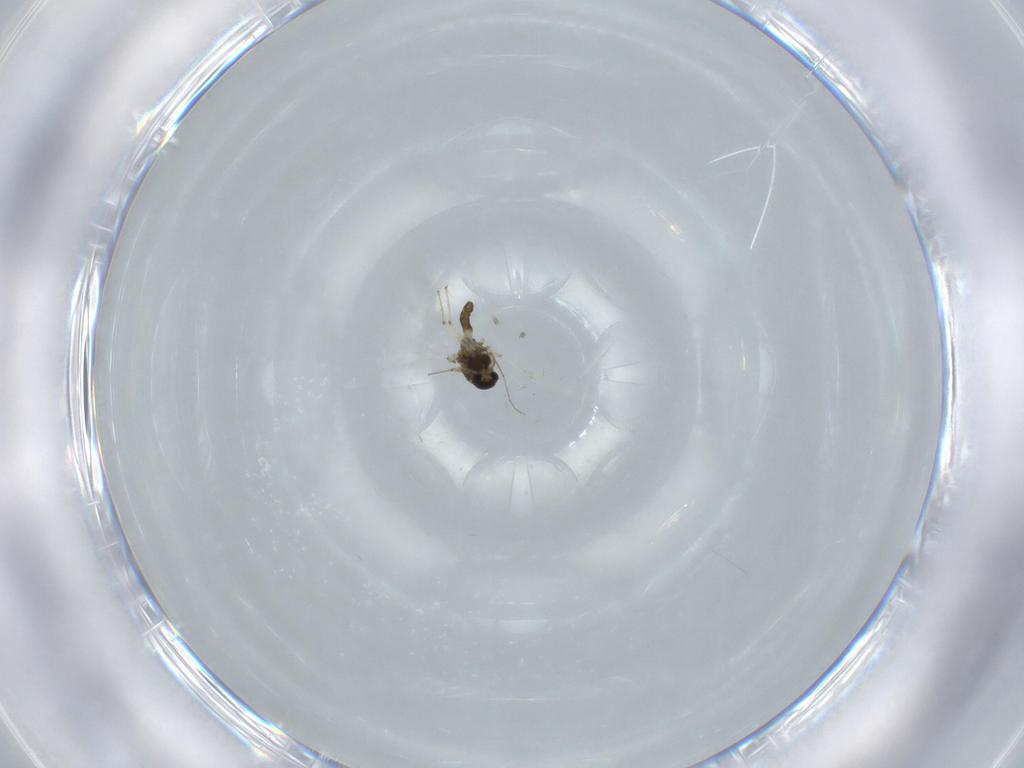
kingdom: Animalia
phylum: Arthropoda
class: Insecta
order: Diptera
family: Chironomidae
